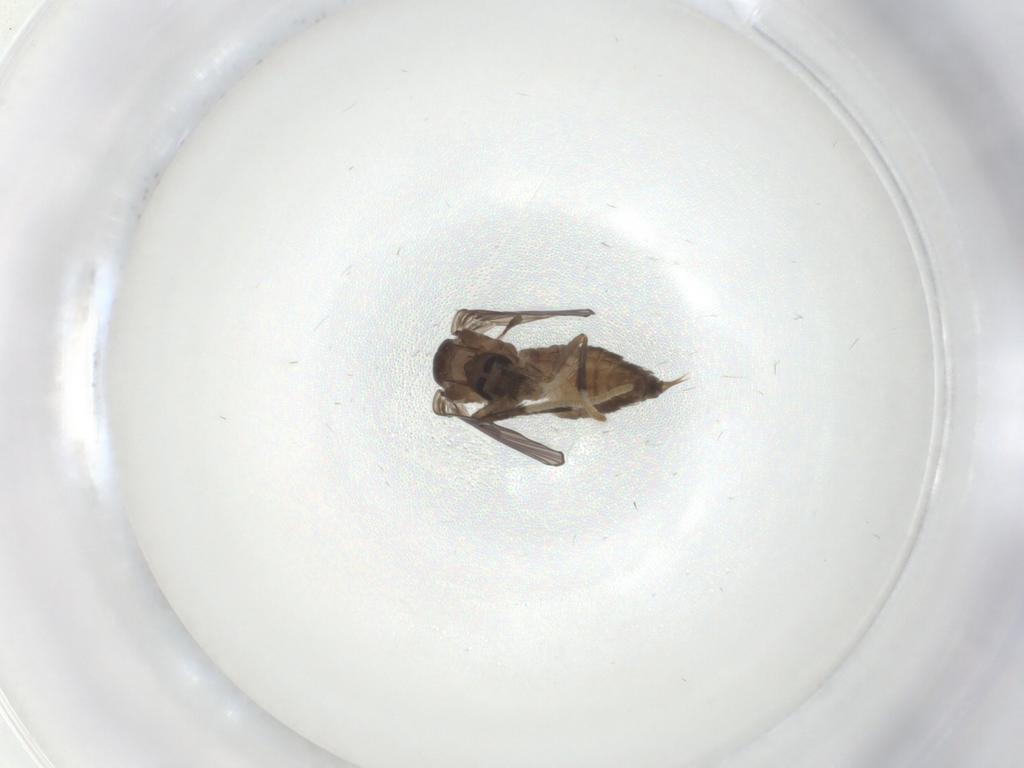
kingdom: Animalia
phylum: Arthropoda
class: Insecta
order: Diptera
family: Psychodidae
